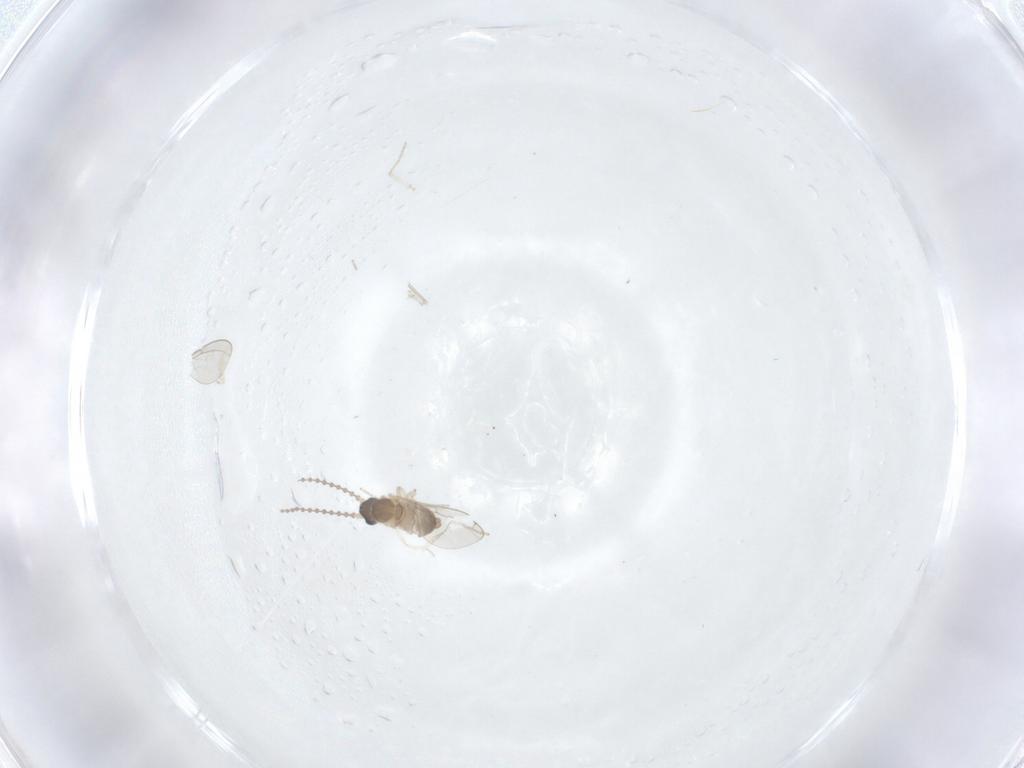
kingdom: Animalia
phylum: Arthropoda
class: Insecta
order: Diptera
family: Cecidomyiidae
